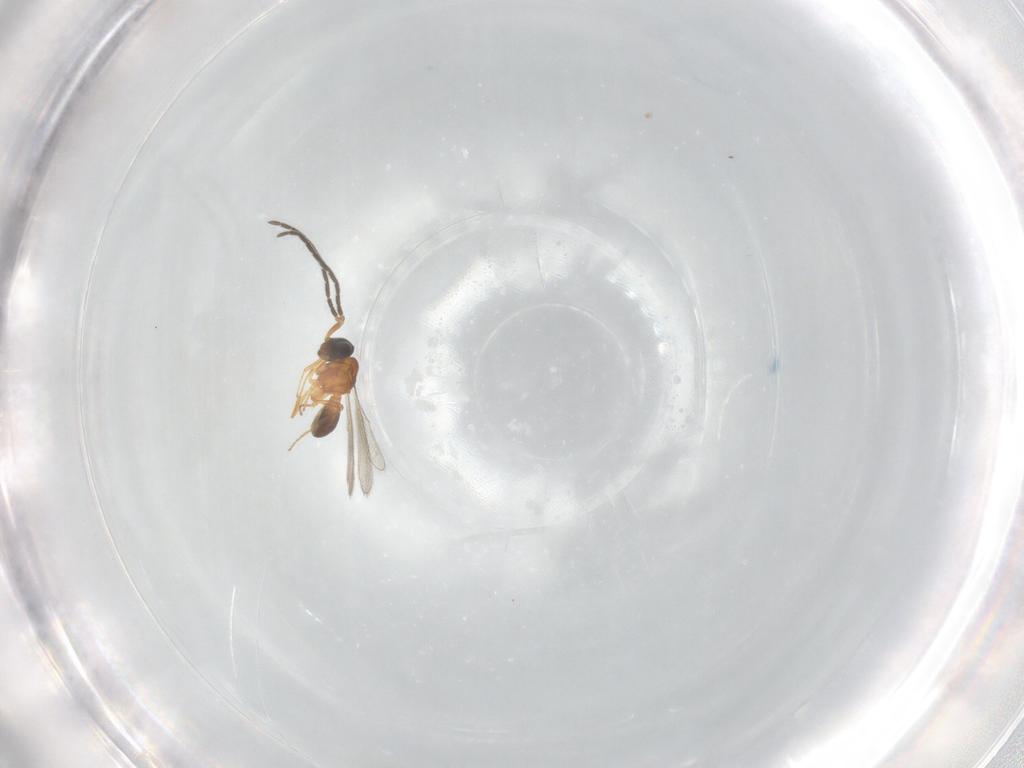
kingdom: Animalia
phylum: Arthropoda
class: Insecta
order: Hymenoptera
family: Scelionidae
